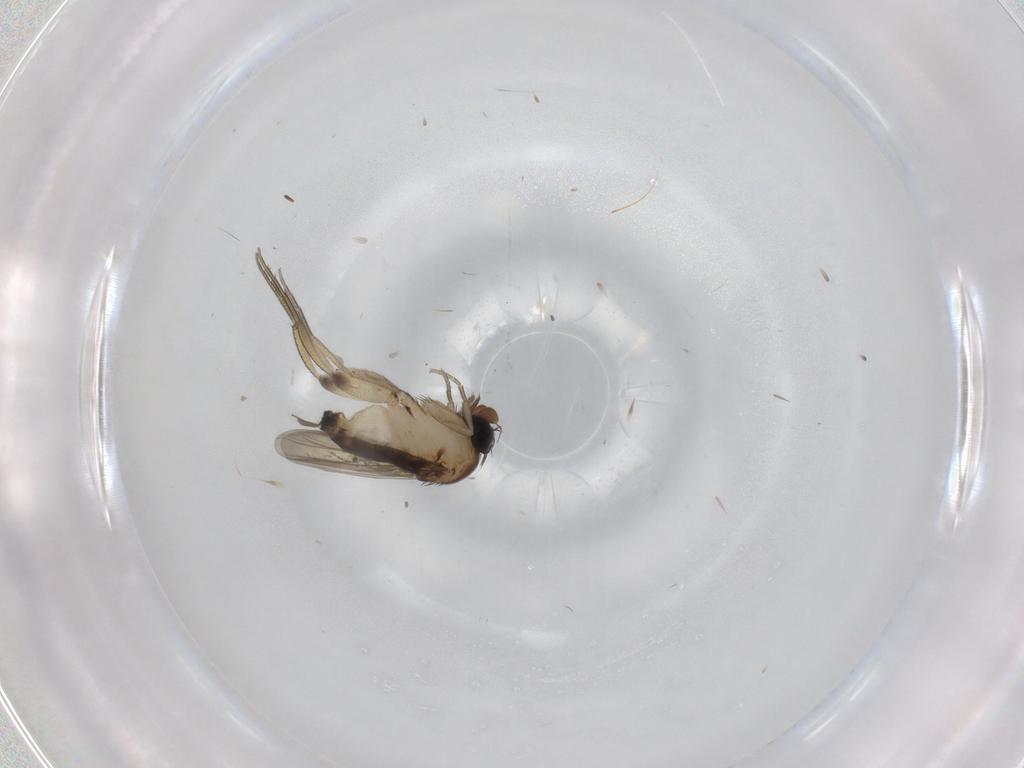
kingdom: Animalia
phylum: Arthropoda
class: Insecta
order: Diptera
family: Phoridae
